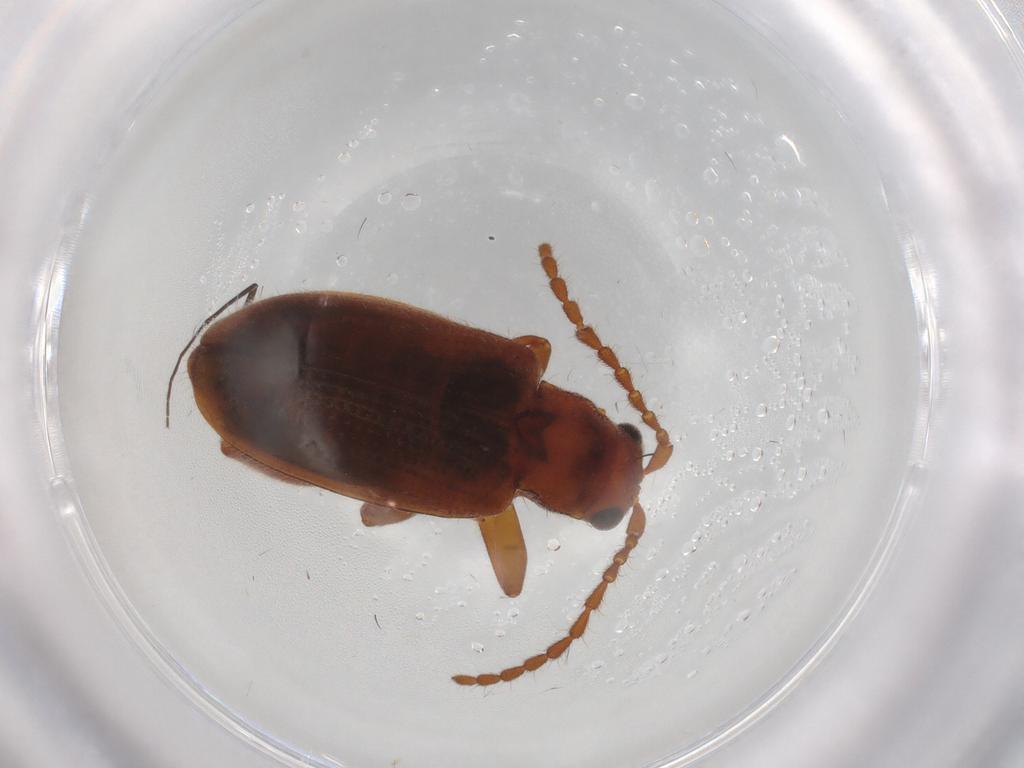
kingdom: Animalia
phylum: Arthropoda
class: Insecta
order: Coleoptera
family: Chrysomelidae
